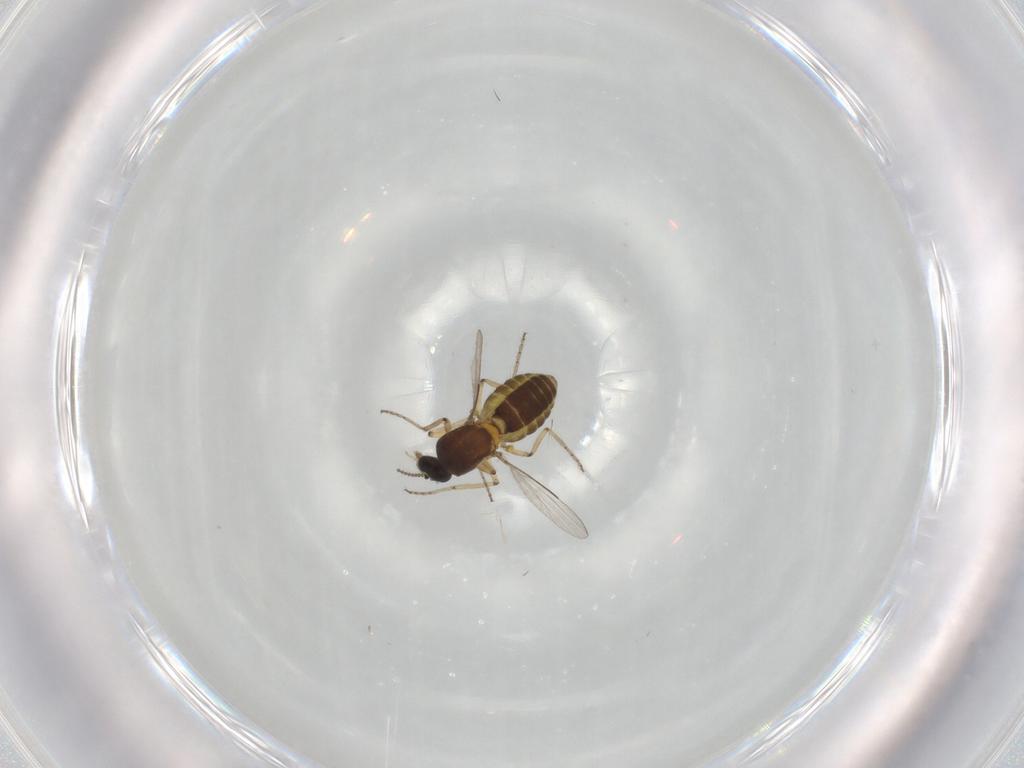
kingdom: Animalia
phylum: Arthropoda
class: Insecta
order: Diptera
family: Ceratopogonidae
